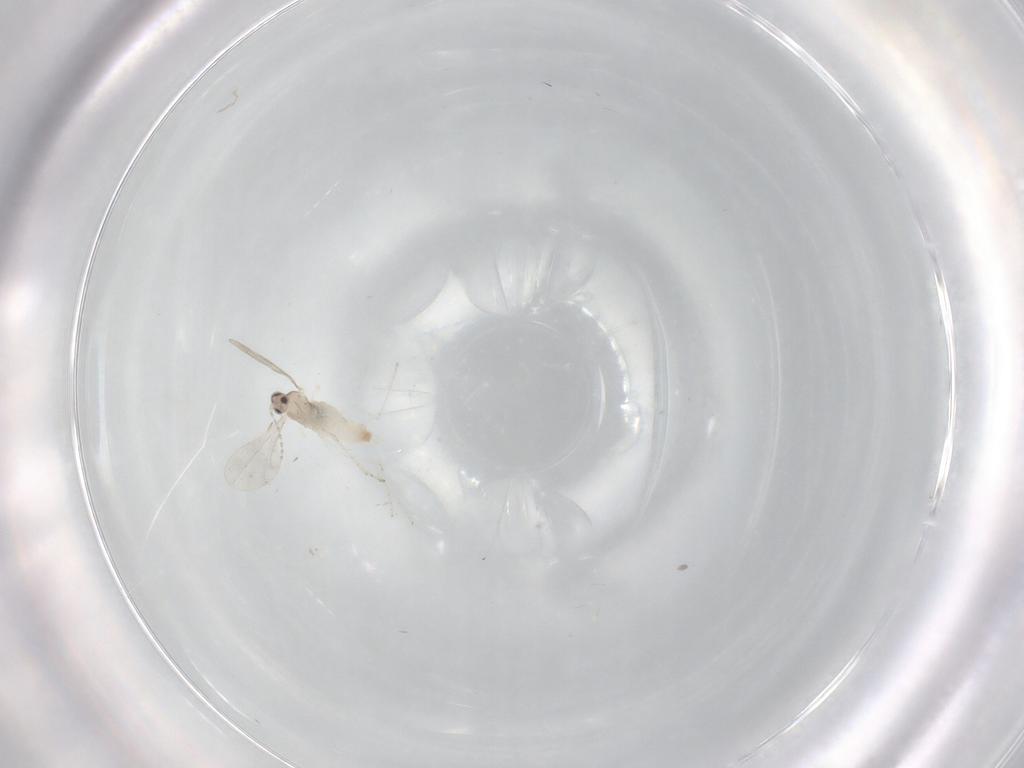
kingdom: Animalia
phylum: Arthropoda
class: Insecta
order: Diptera
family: Cecidomyiidae
